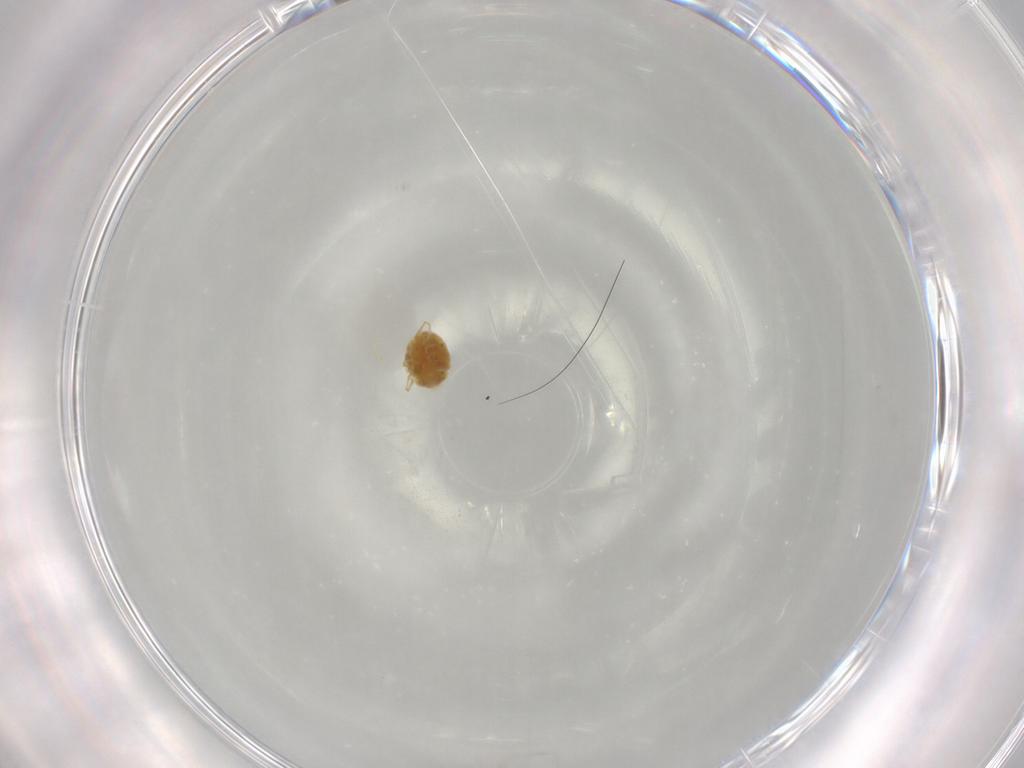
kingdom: Animalia
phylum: Arthropoda
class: Arachnida
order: Trombidiformes
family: Tetranychidae
